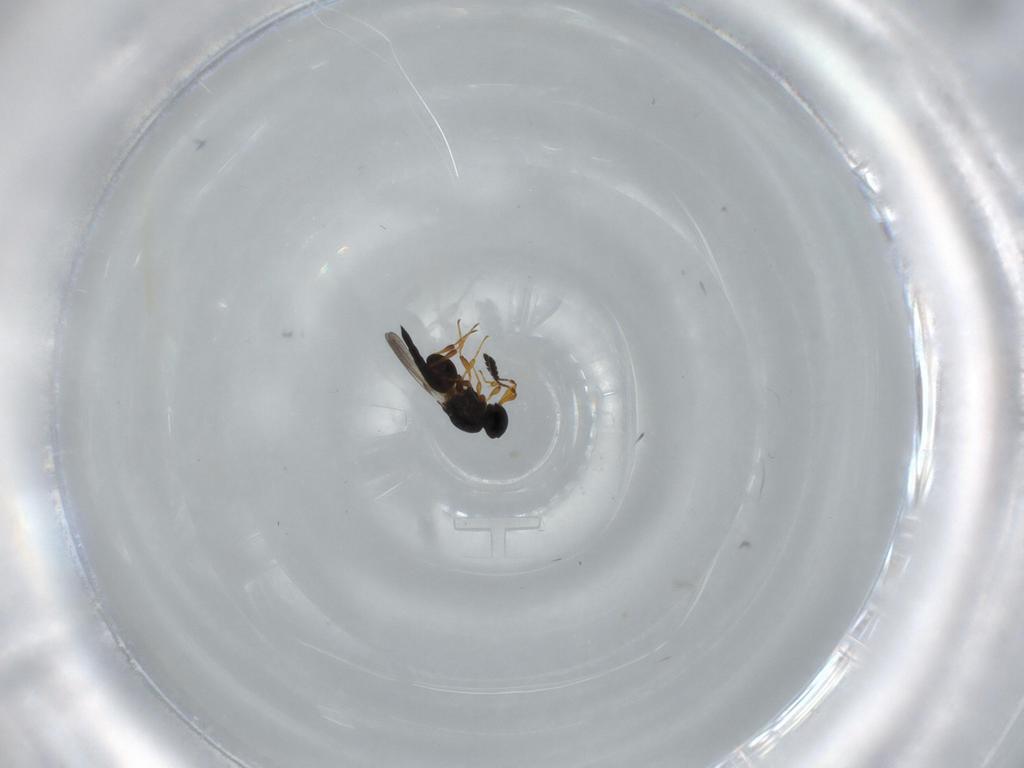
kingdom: Animalia
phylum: Arthropoda
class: Insecta
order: Hymenoptera
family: Platygastridae
